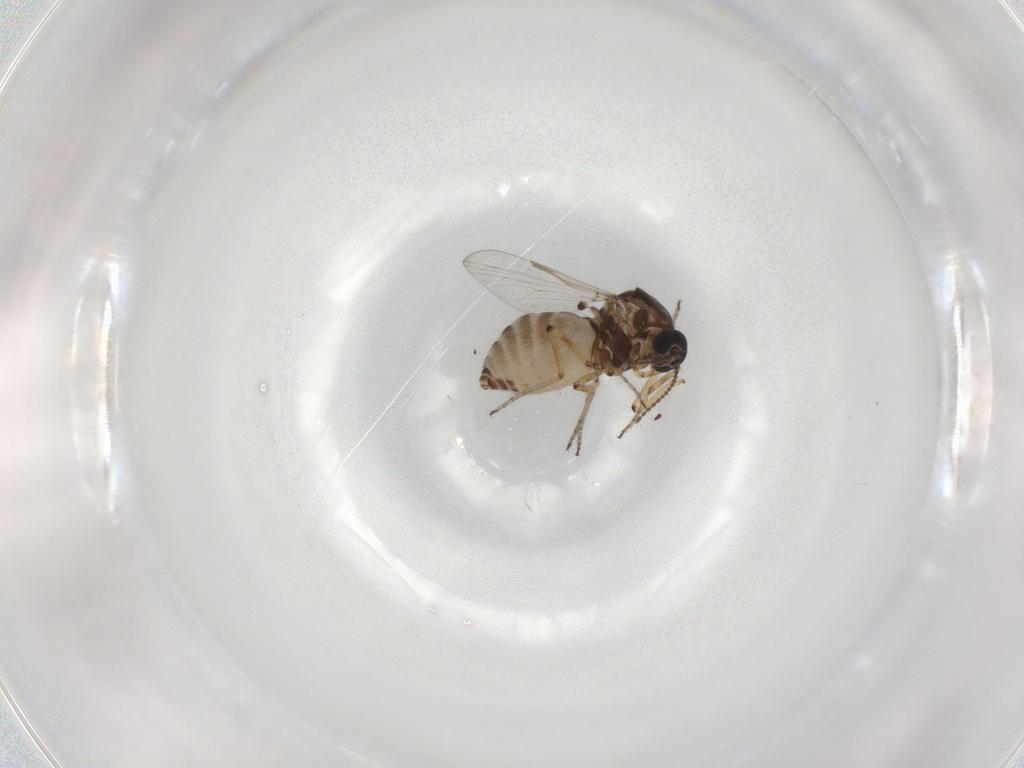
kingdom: Animalia
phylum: Arthropoda
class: Insecta
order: Diptera
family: Ceratopogonidae
